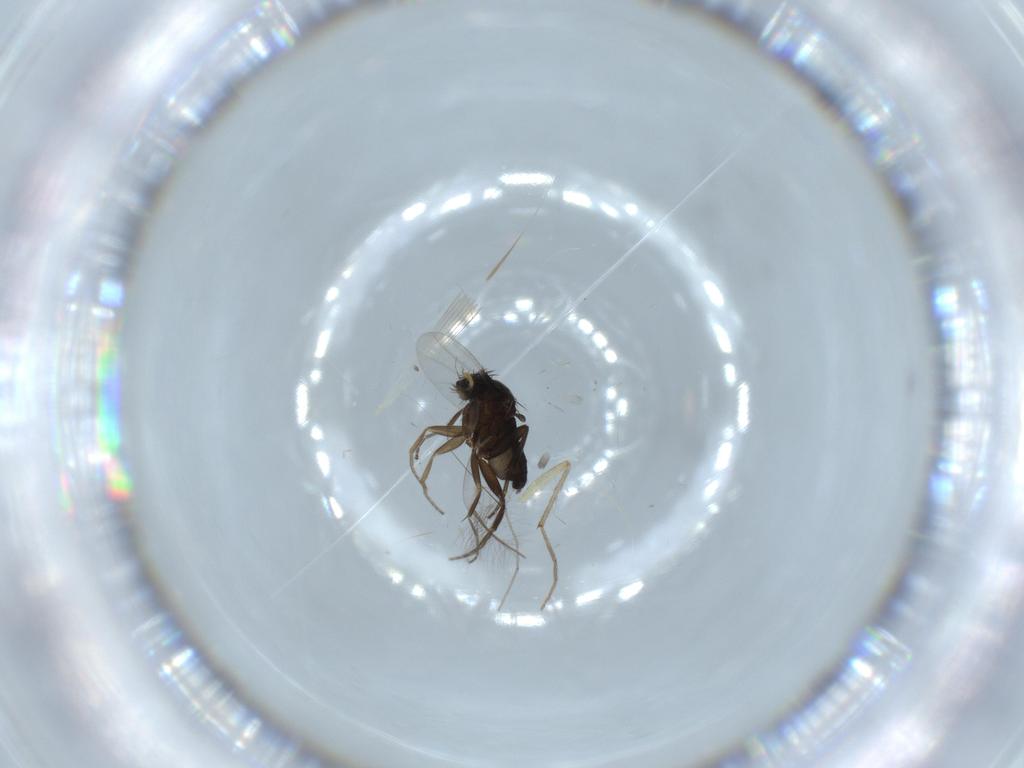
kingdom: Animalia
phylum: Arthropoda
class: Insecta
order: Diptera
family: Phoridae
